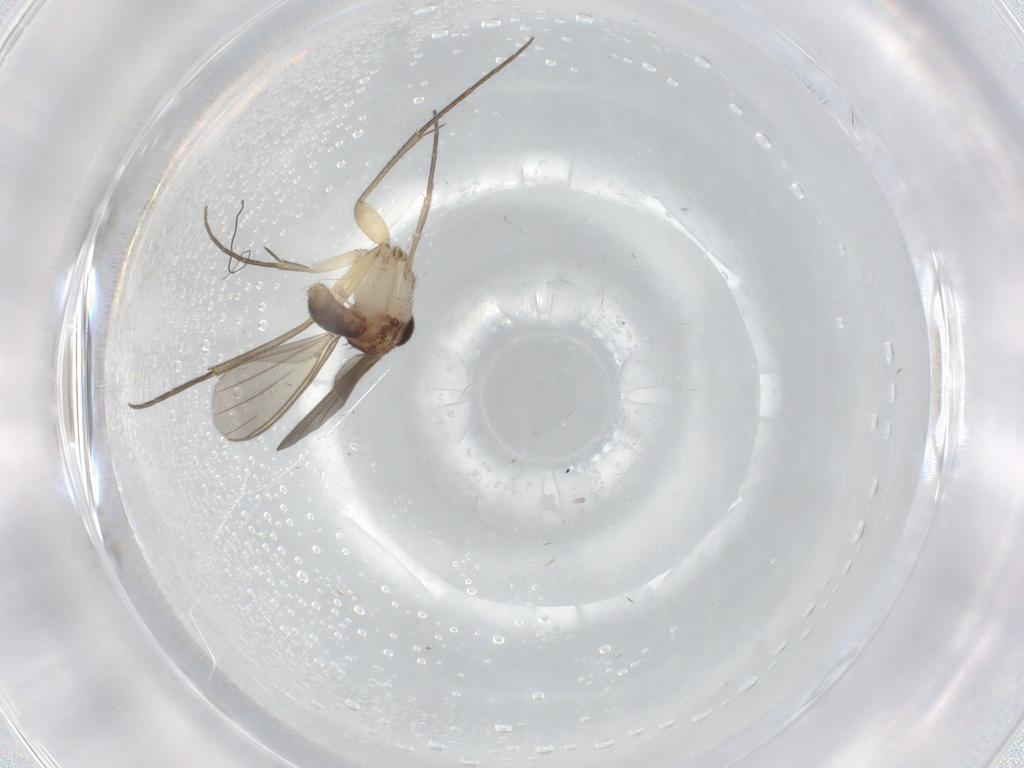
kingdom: Animalia
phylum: Arthropoda
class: Insecta
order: Diptera
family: Mycetophilidae
